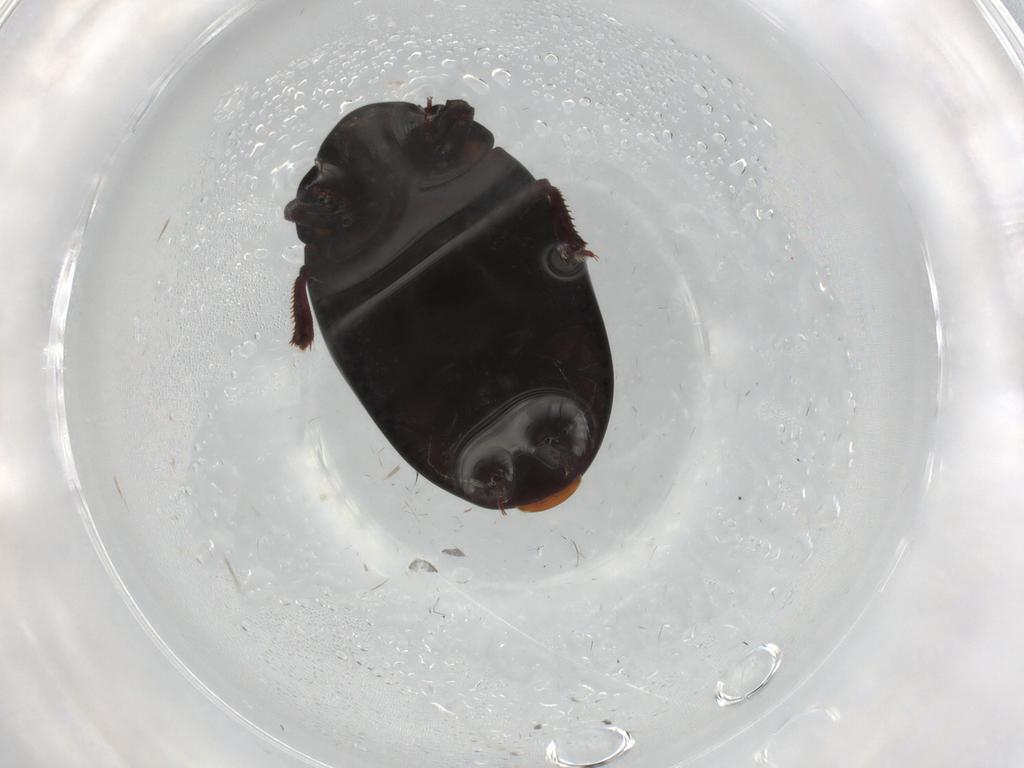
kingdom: Animalia
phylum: Arthropoda
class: Insecta
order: Coleoptera
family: Nosodendridae
